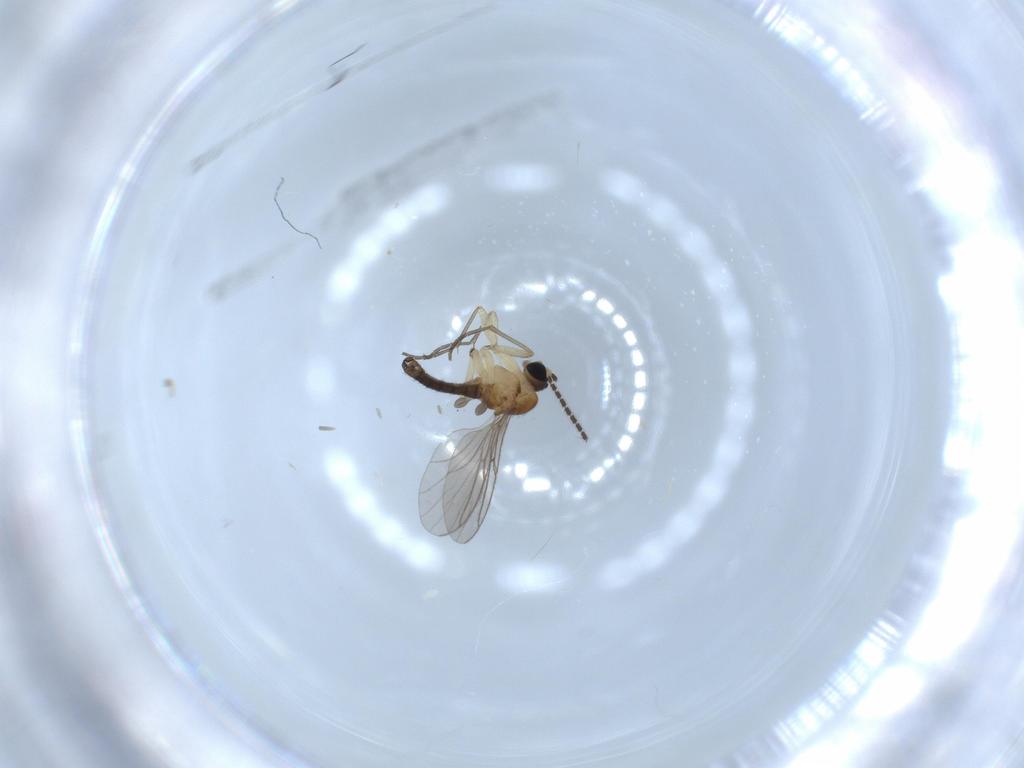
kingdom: Animalia
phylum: Arthropoda
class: Insecta
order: Diptera
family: Sciaridae
